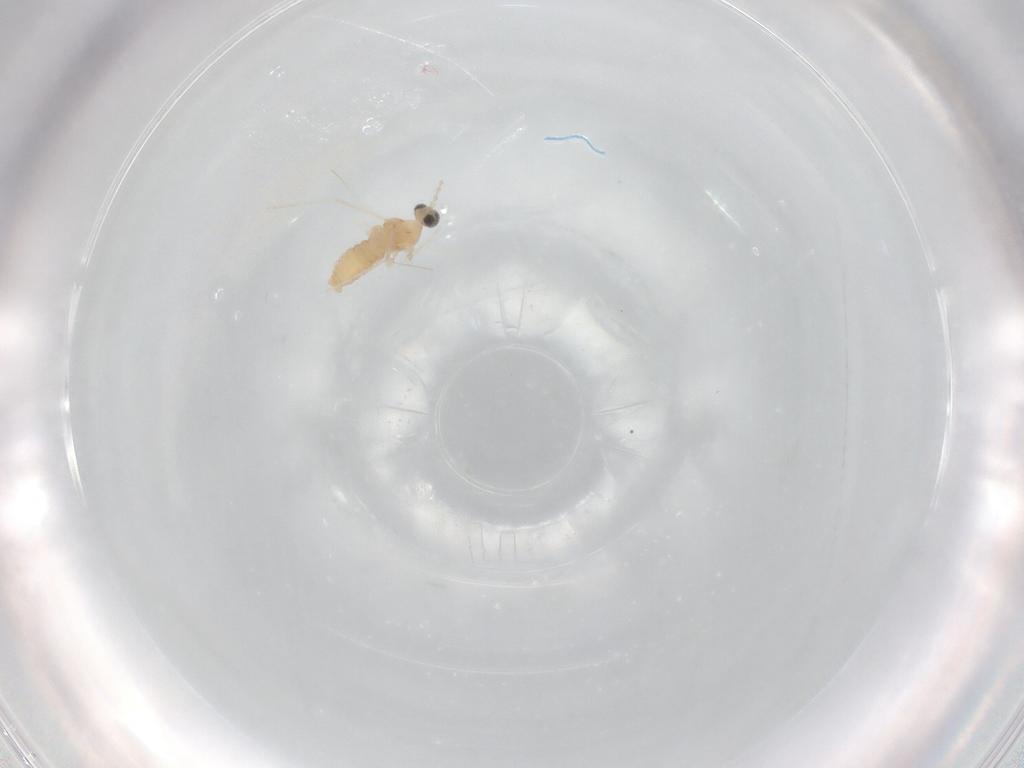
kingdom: Animalia
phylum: Arthropoda
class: Insecta
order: Diptera
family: Cecidomyiidae
